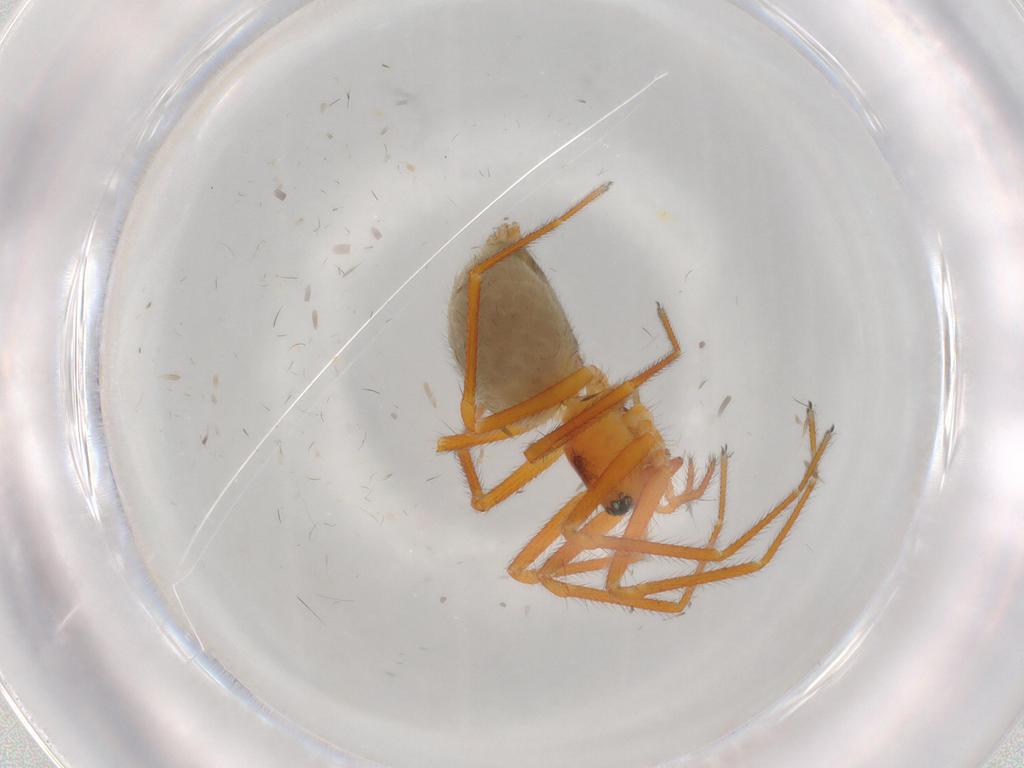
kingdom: Animalia
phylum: Arthropoda
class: Arachnida
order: Araneae
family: Linyphiidae
